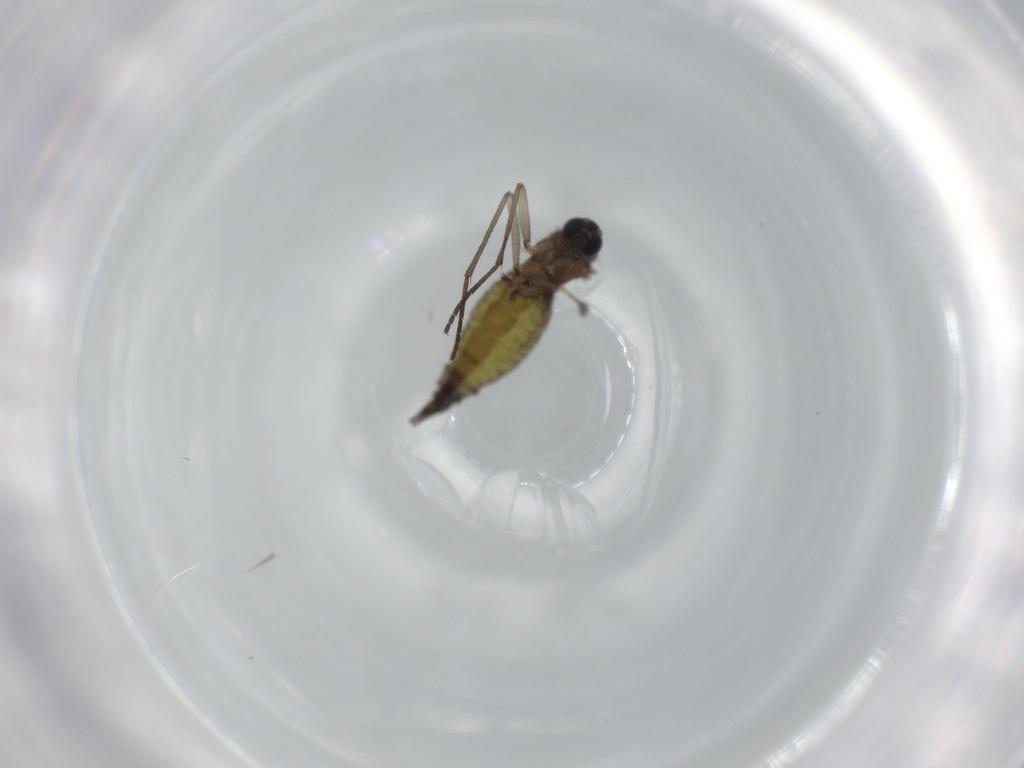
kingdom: Animalia
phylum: Arthropoda
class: Insecta
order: Diptera
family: Sciaridae
